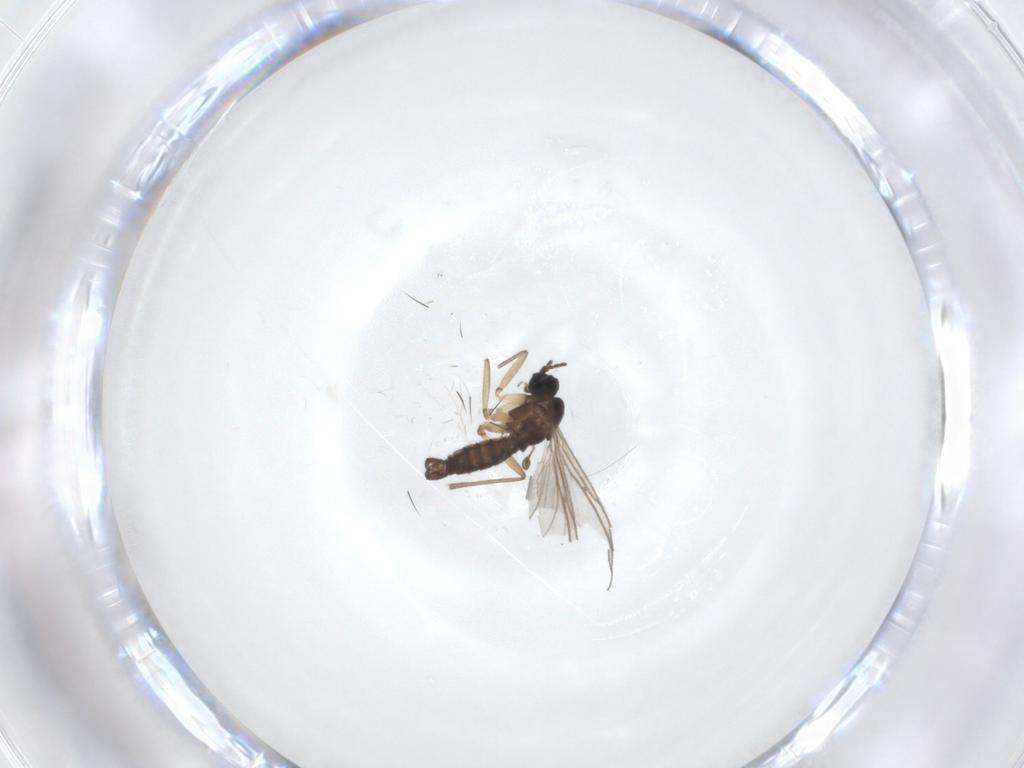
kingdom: Animalia
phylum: Arthropoda
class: Insecta
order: Diptera
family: Sciaridae
